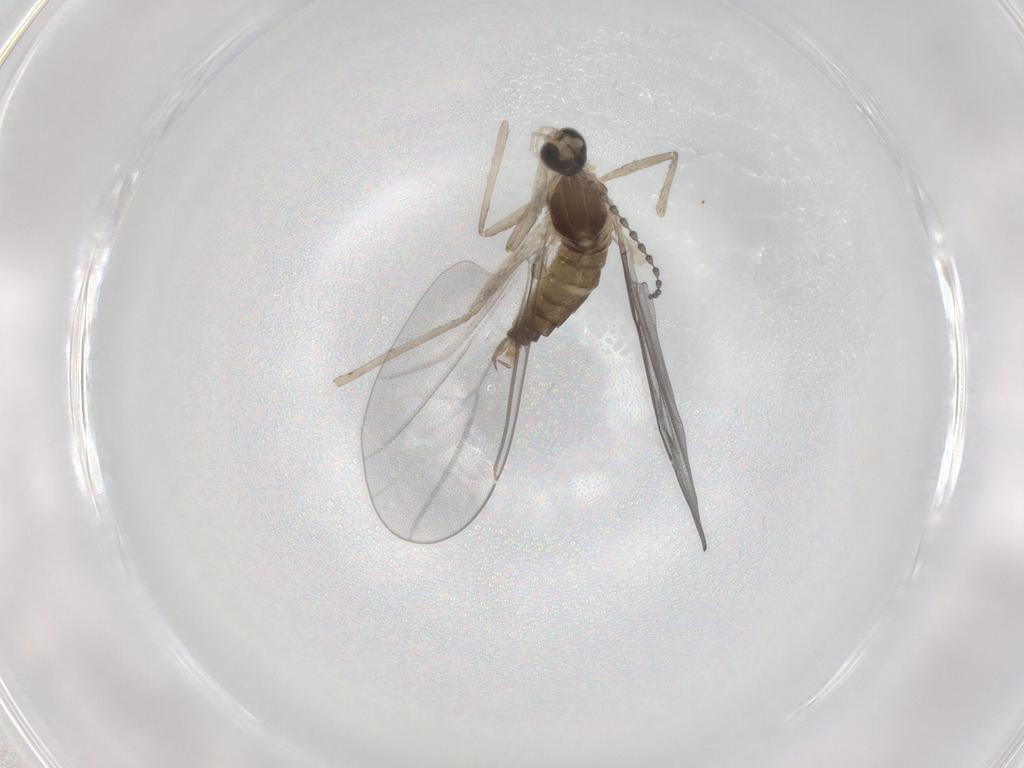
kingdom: Animalia
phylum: Arthropoda
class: Insecta
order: Diptera
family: Cecidomyiidae
